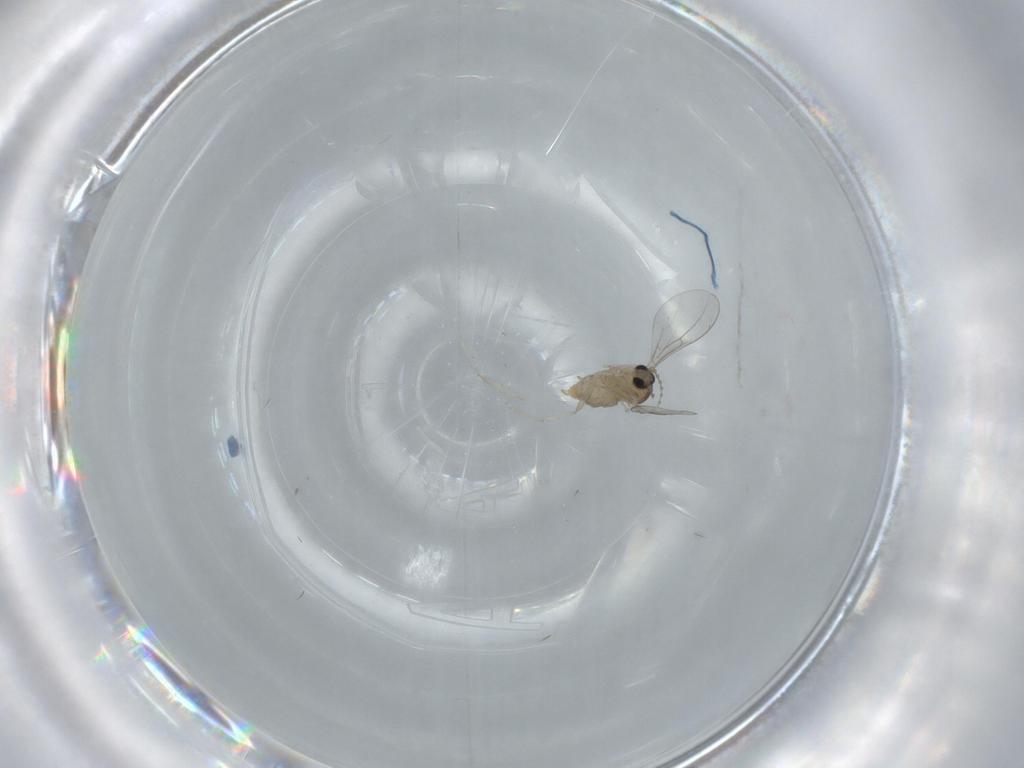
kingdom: Animalia
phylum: Arthropoda
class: Insecta
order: Diptera
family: Cecidomyiidae
